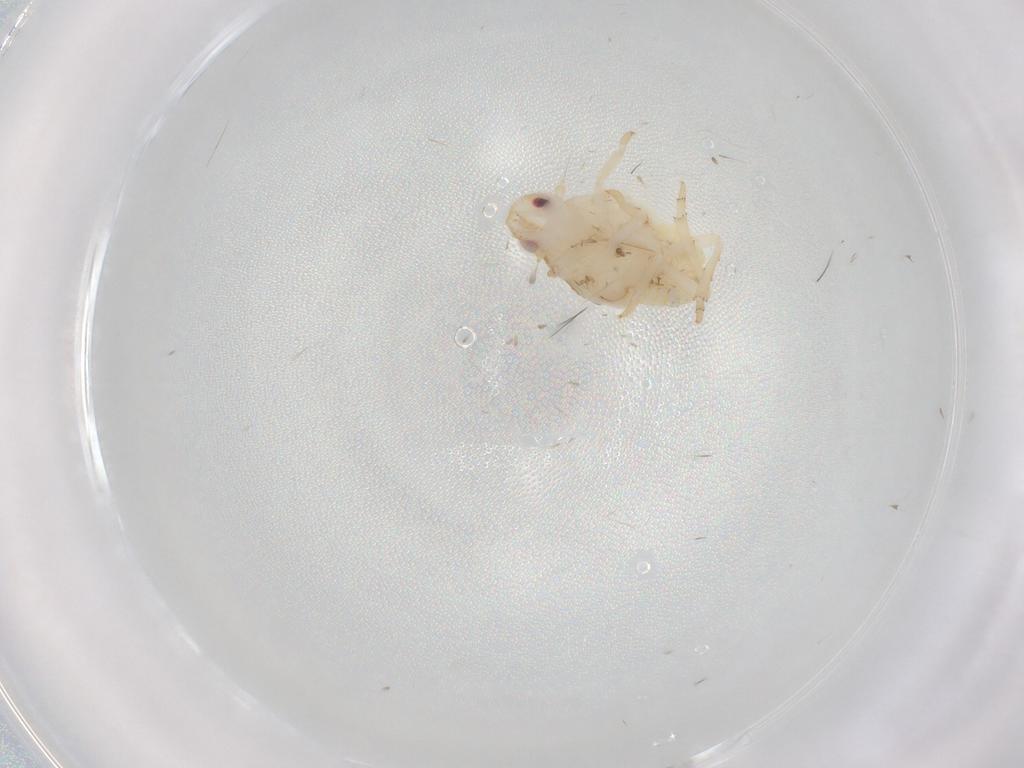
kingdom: Animalia
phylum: Arthropoda
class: Insecta
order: Hemiptera
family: Flatidae
